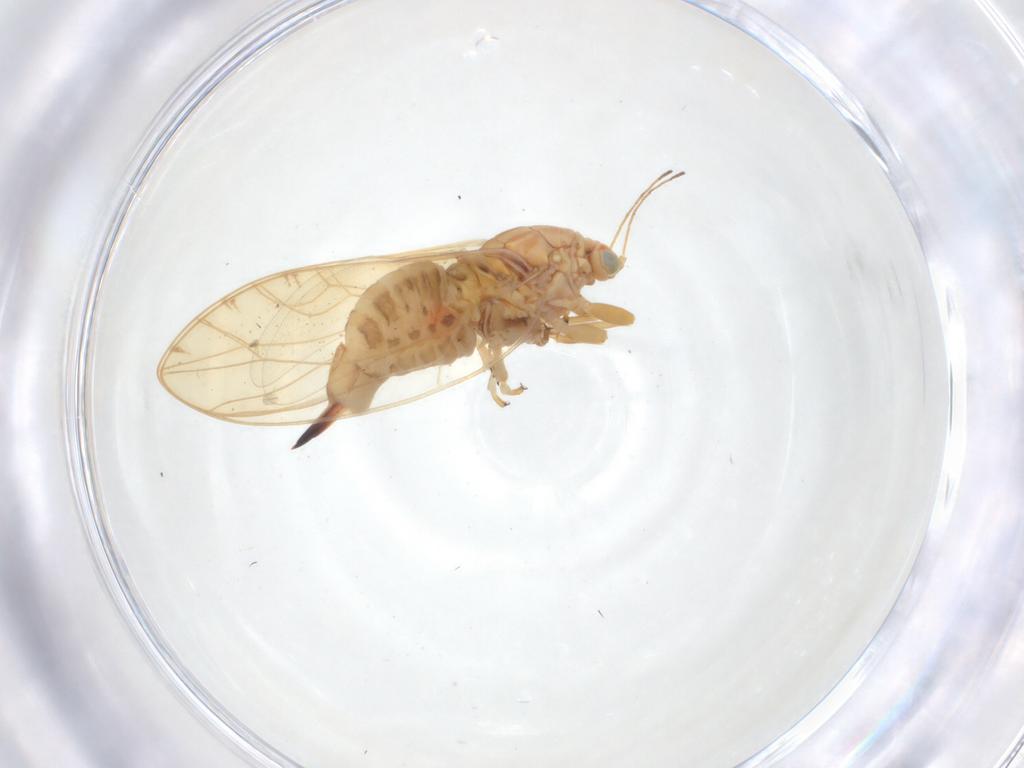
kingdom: Animalia
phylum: Arthropoda
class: Insecta
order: Hemiptera
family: Triozidae
